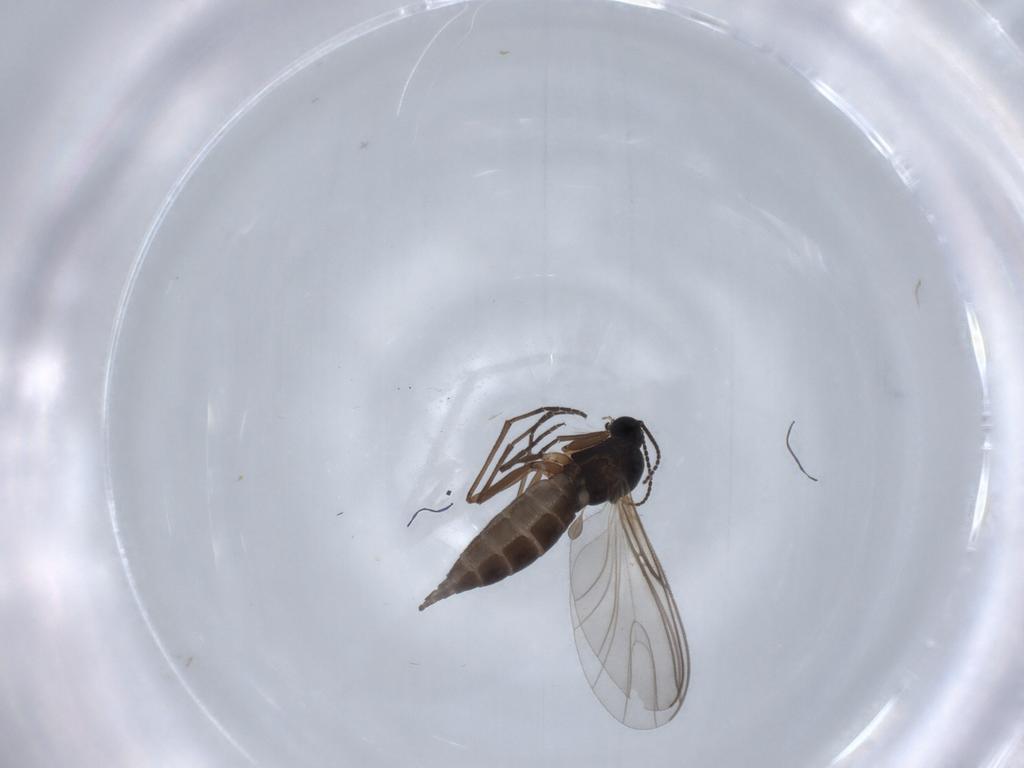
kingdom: Animalia
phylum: Arthropoda
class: Insecta
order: Diptera
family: Sciaridae
